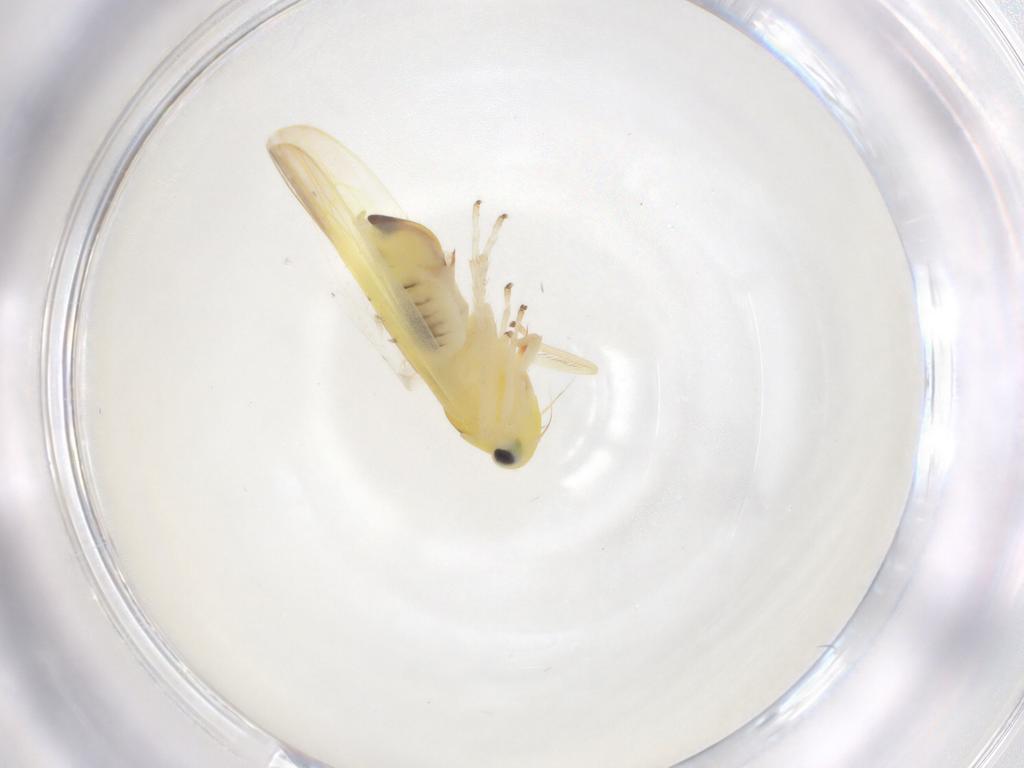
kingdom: Animalia
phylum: Arthropoda
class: Insecta
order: Hemiptera
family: Cicadellidae
